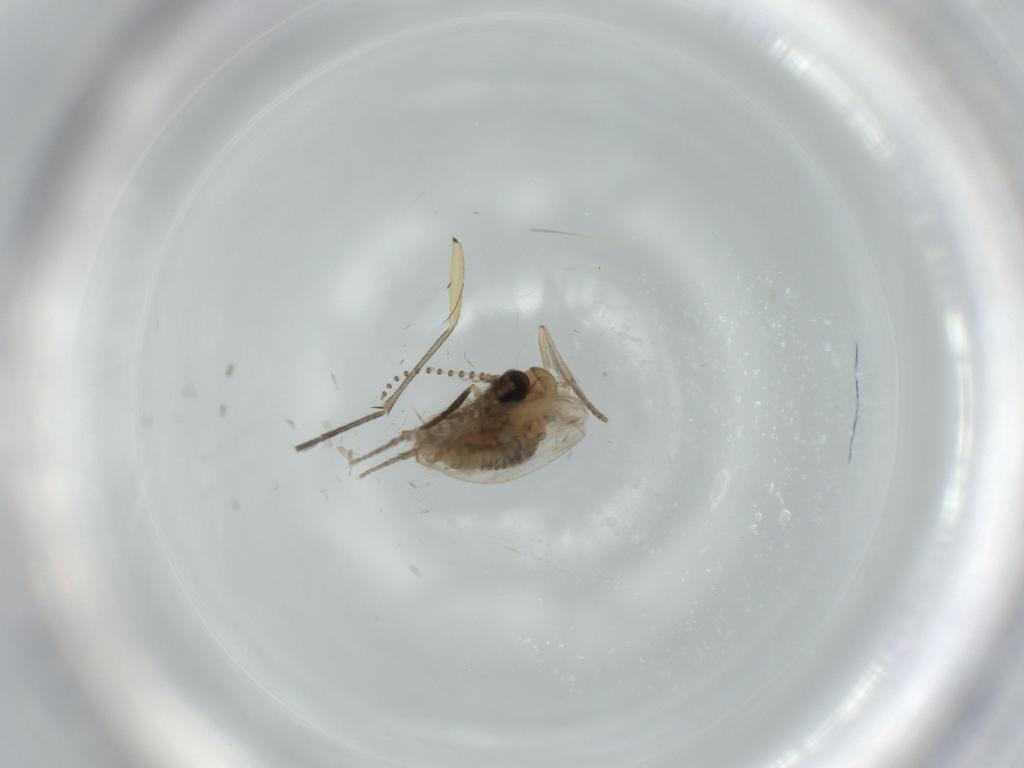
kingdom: Animalia
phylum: Arthropoda
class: Insecta
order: Diptera
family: Psychodidae
